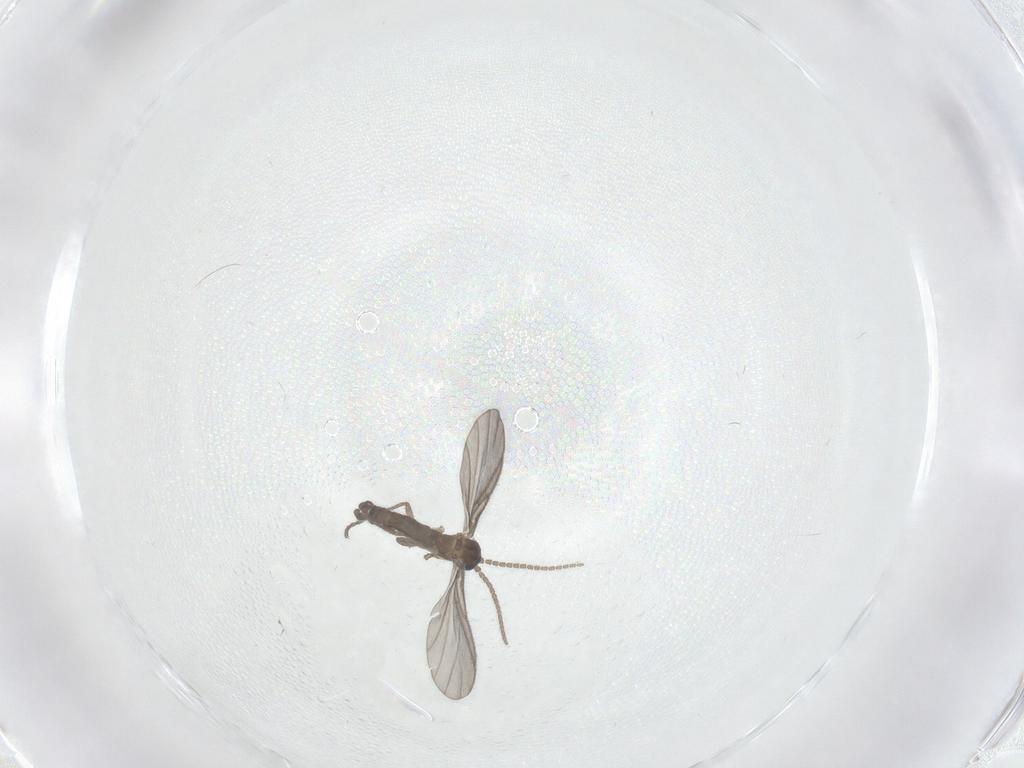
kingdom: Animalia
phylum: Arthropoda
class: Insecta
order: Diptera
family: Sciaridae
